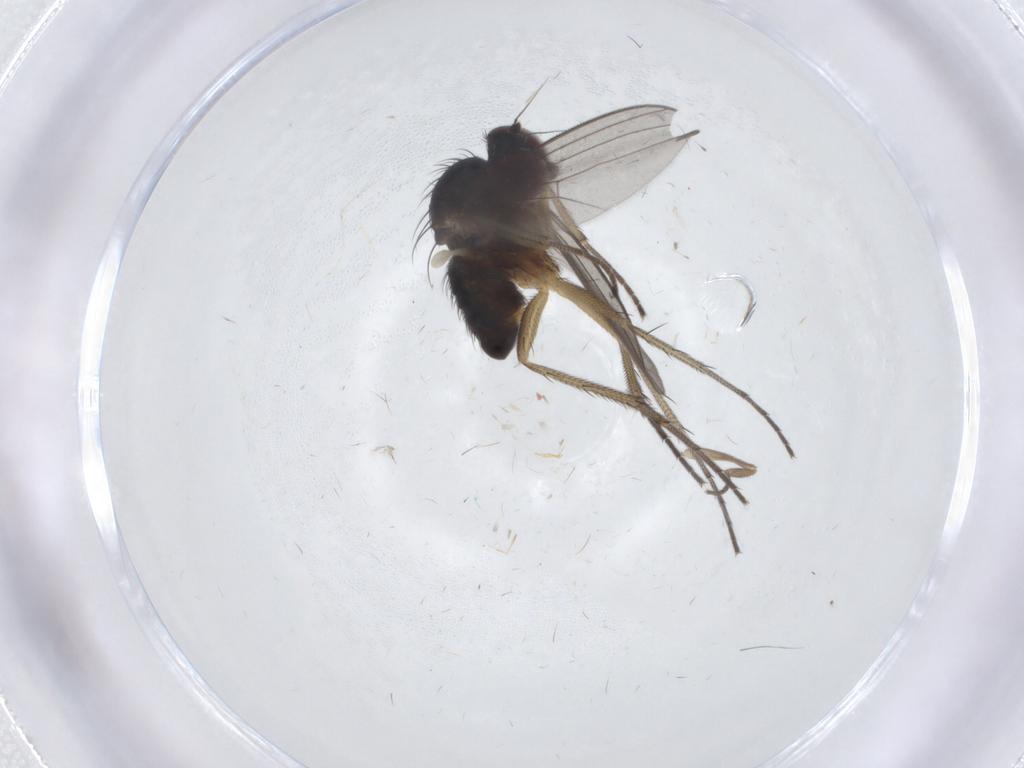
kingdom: Animalia
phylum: Arthropoda
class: Insecta
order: Diptera
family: Dolichopodidae
